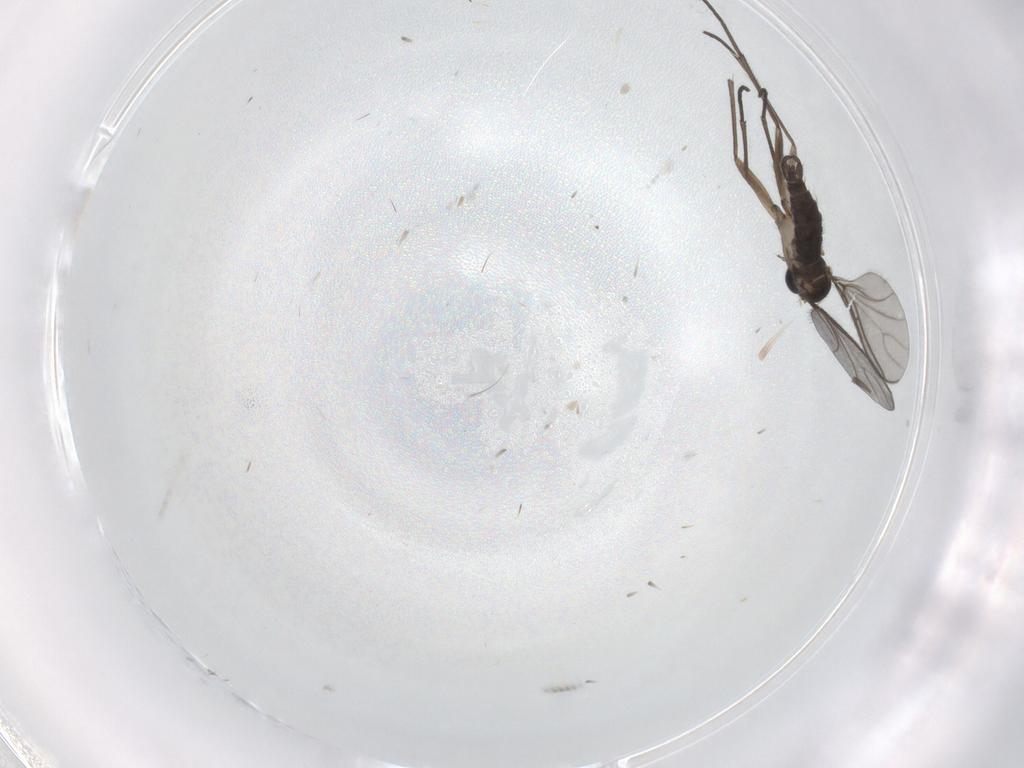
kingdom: Animalia
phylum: Arthropoda
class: Insecta
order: Diptera
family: Sciaridae
